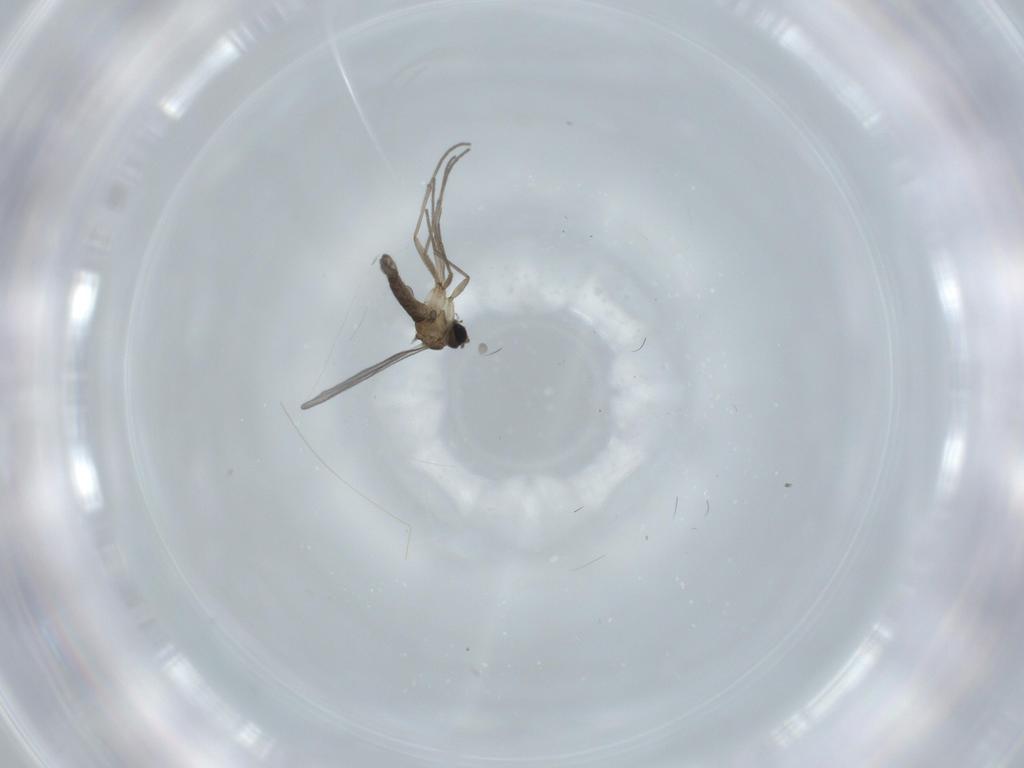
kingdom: Animalia
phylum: Arthropoda
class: Insecta
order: Diptera
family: Sciaridae
